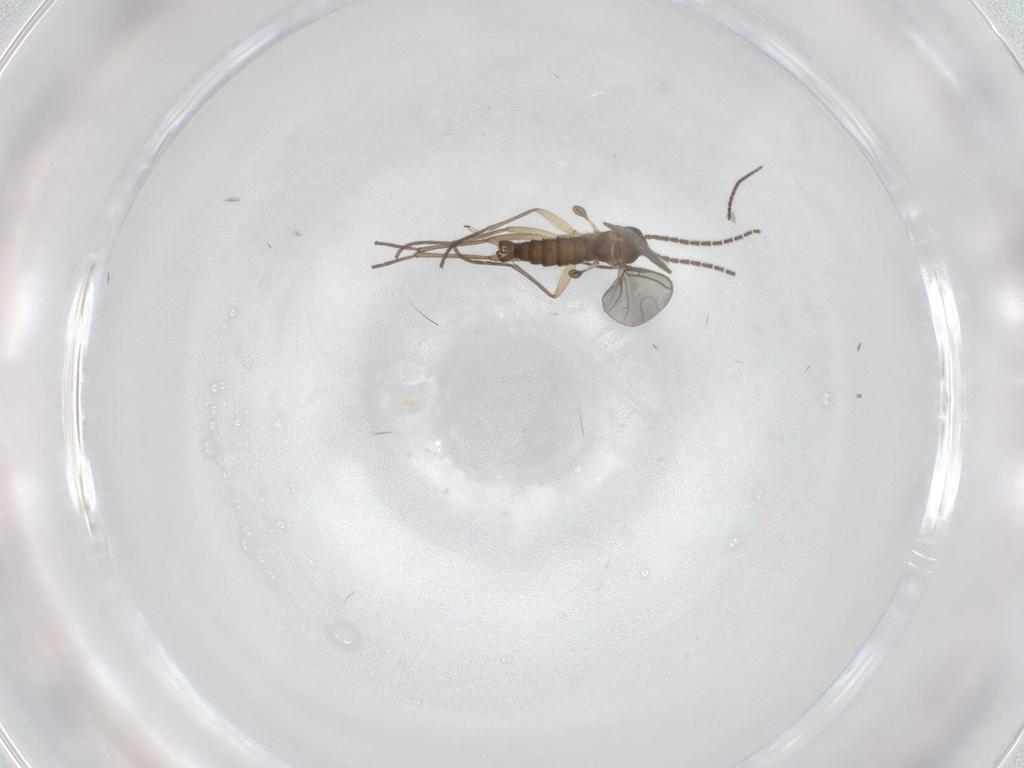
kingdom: Animalia
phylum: Arthropoda
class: Insecta
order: Diptera
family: Sciaridae
